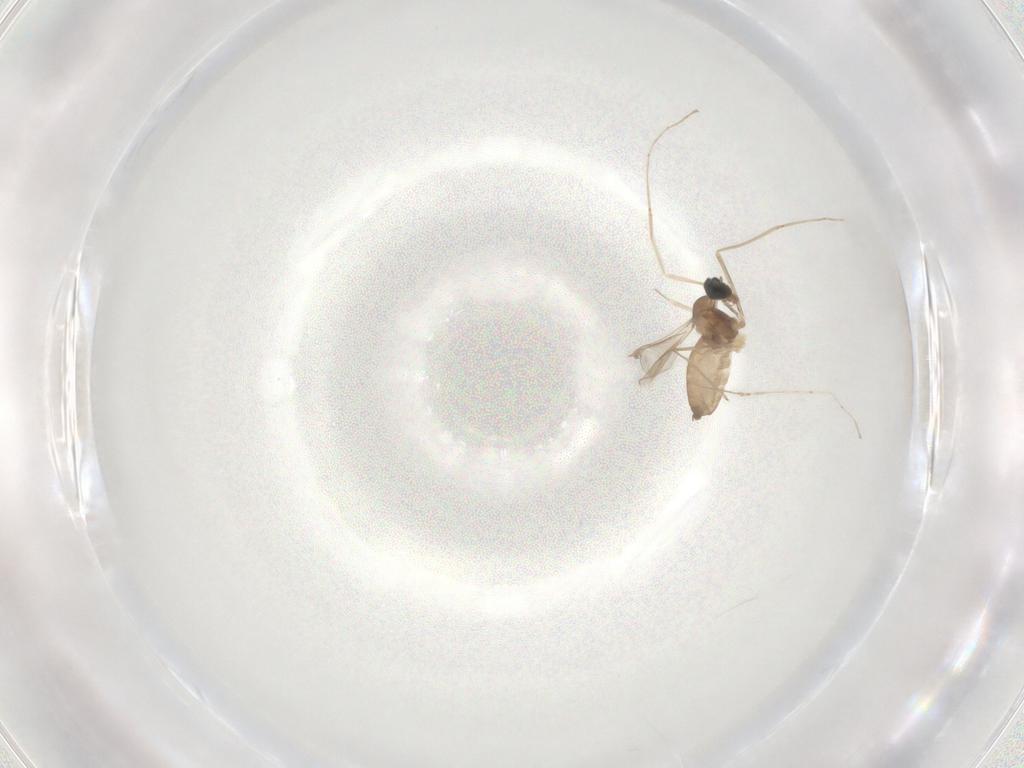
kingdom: Animalia
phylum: Arthropoda
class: Insecta
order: Diptera
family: Cecidomyiidae
